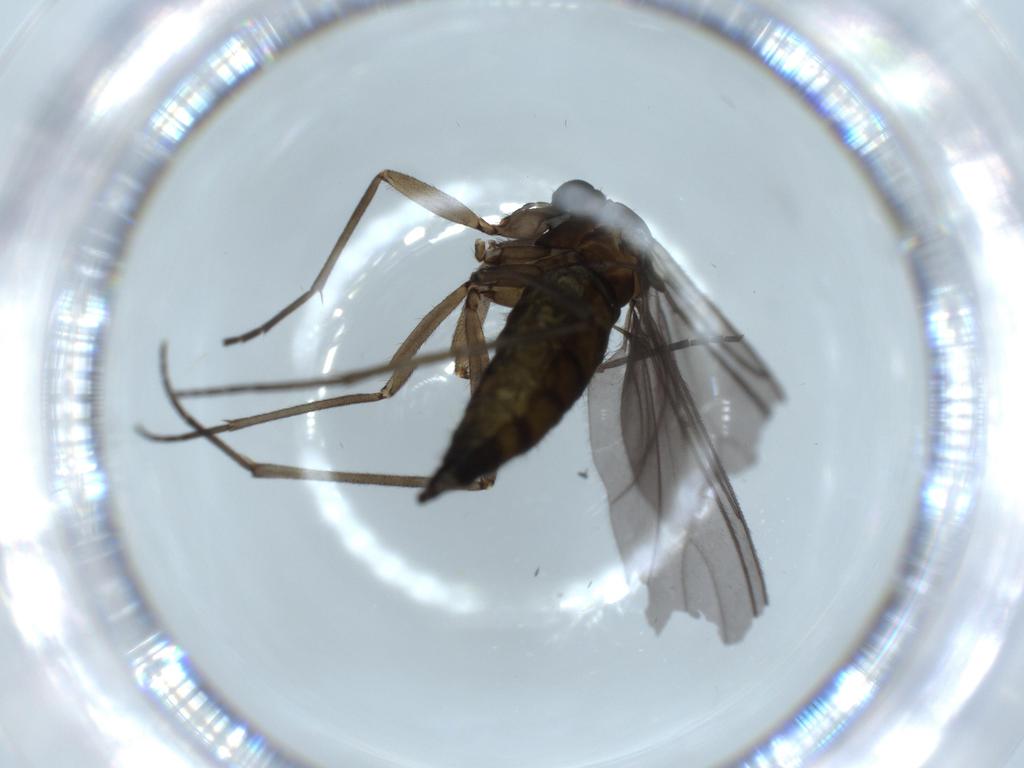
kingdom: Animalia
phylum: Arthropoda
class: Insecta
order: Diptera
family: Sciaridae
